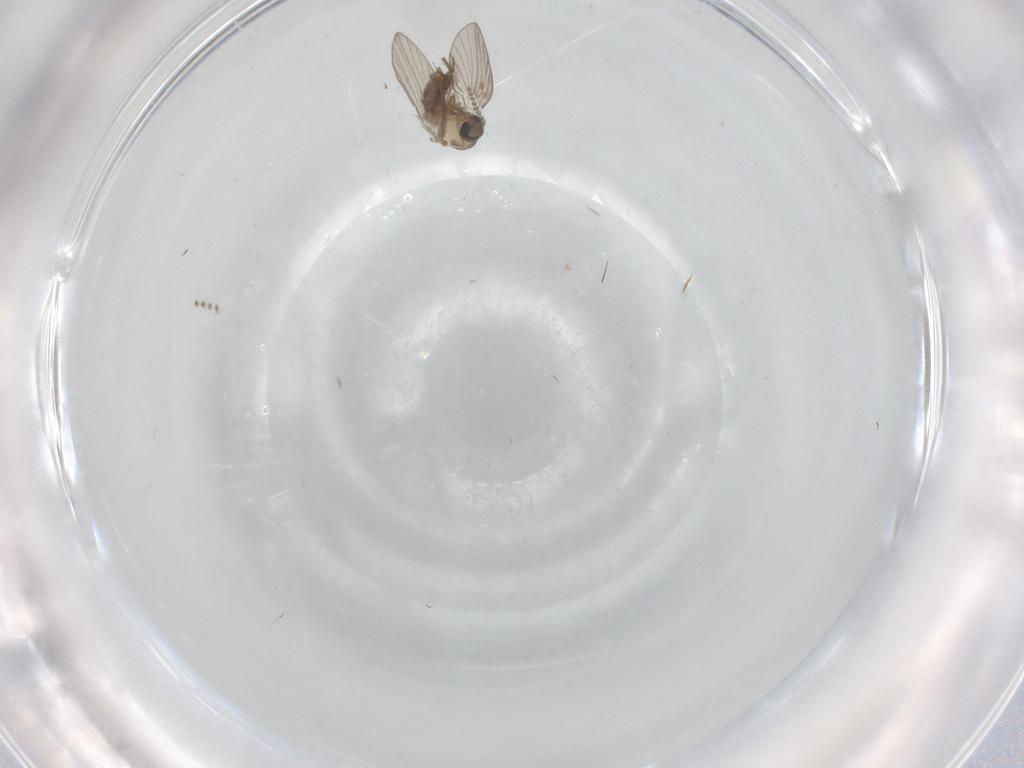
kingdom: Animalia
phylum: Arthropoda
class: Insecta
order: Diptera
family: Psychodidae
